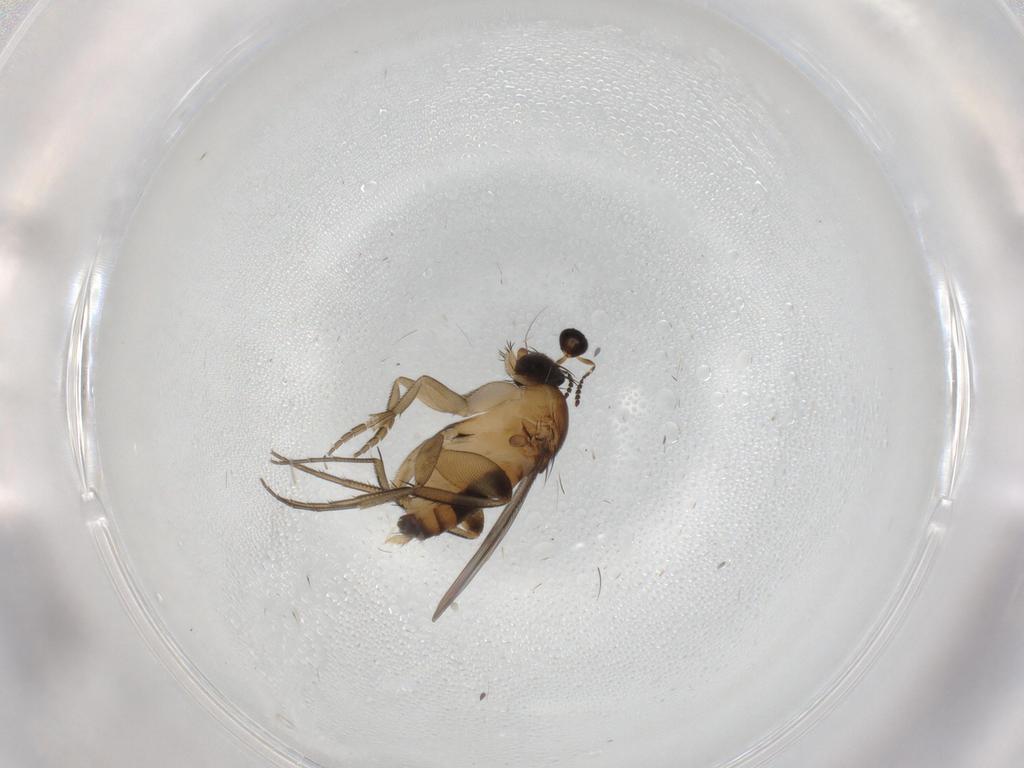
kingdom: Animalia
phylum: Arthropoda
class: Insecta
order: Diptera
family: Phoridae
